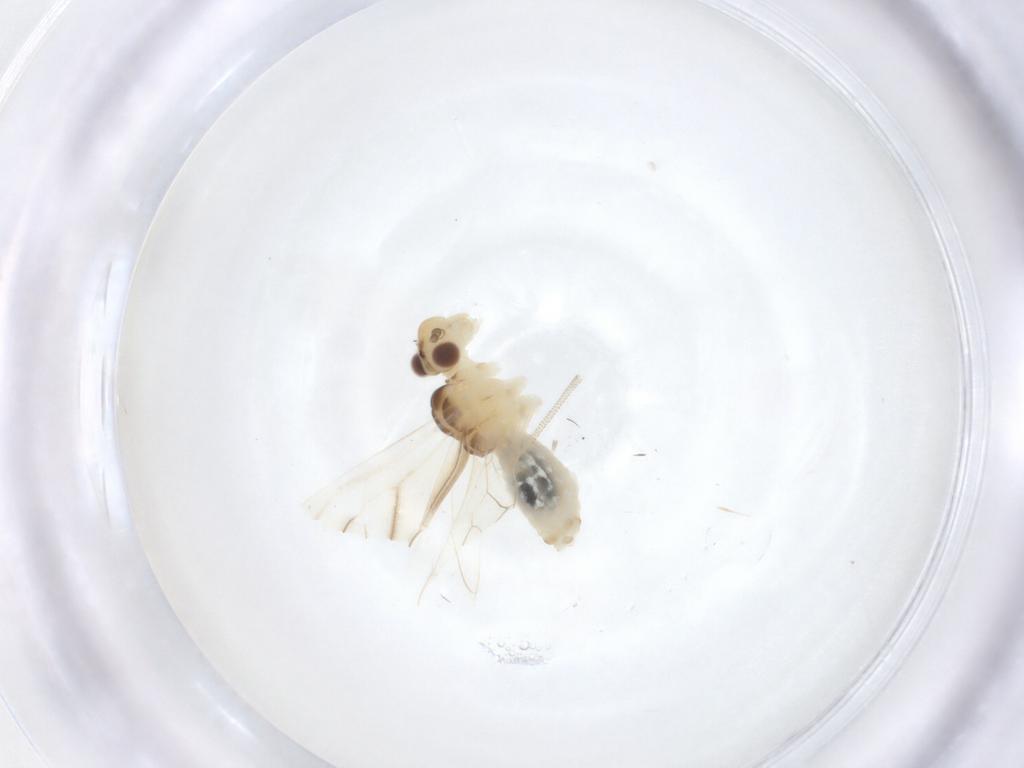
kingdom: Animalia
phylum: Arthropoda
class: Insecta
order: Psocodea
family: Caeciliusidae
